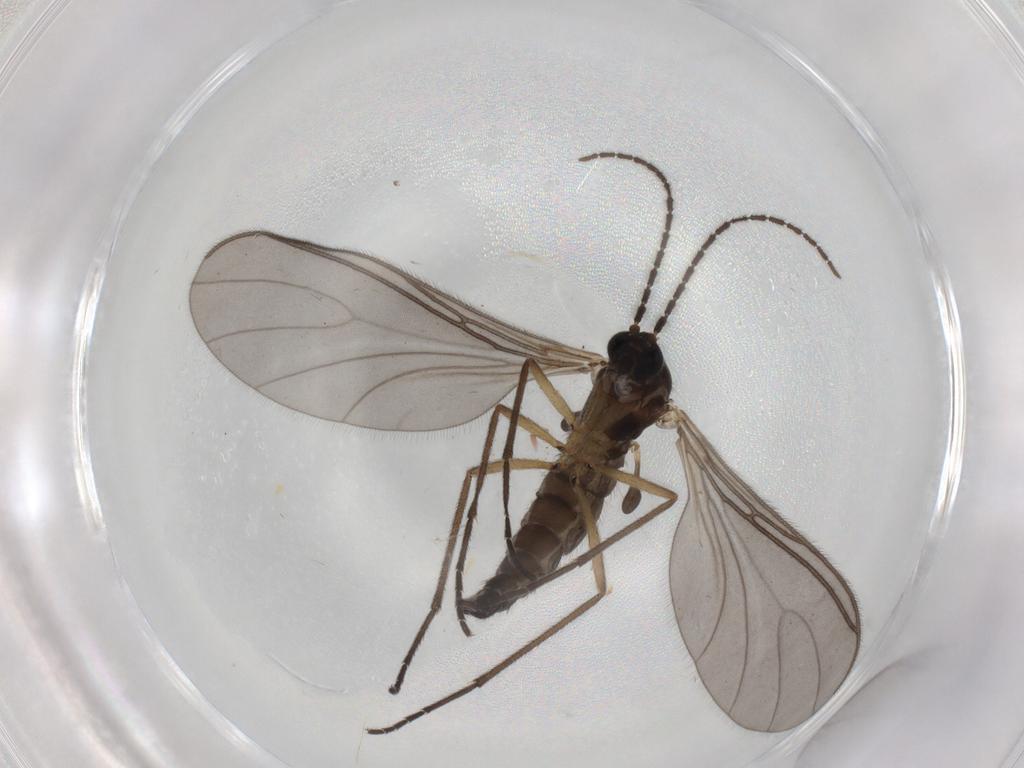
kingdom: Animalia
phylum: Arthropoda
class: Insecta
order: Diptera
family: Sciaridae
